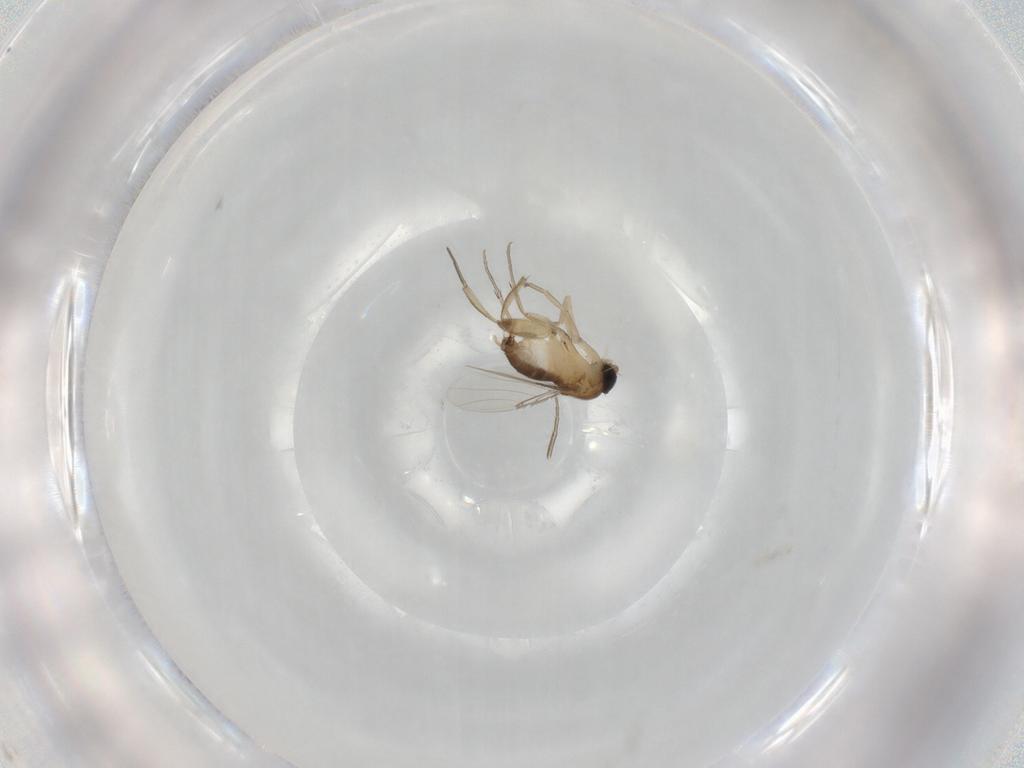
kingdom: Animalia
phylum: Arthropoda
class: Insecta
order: Diptera
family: Phoridae
